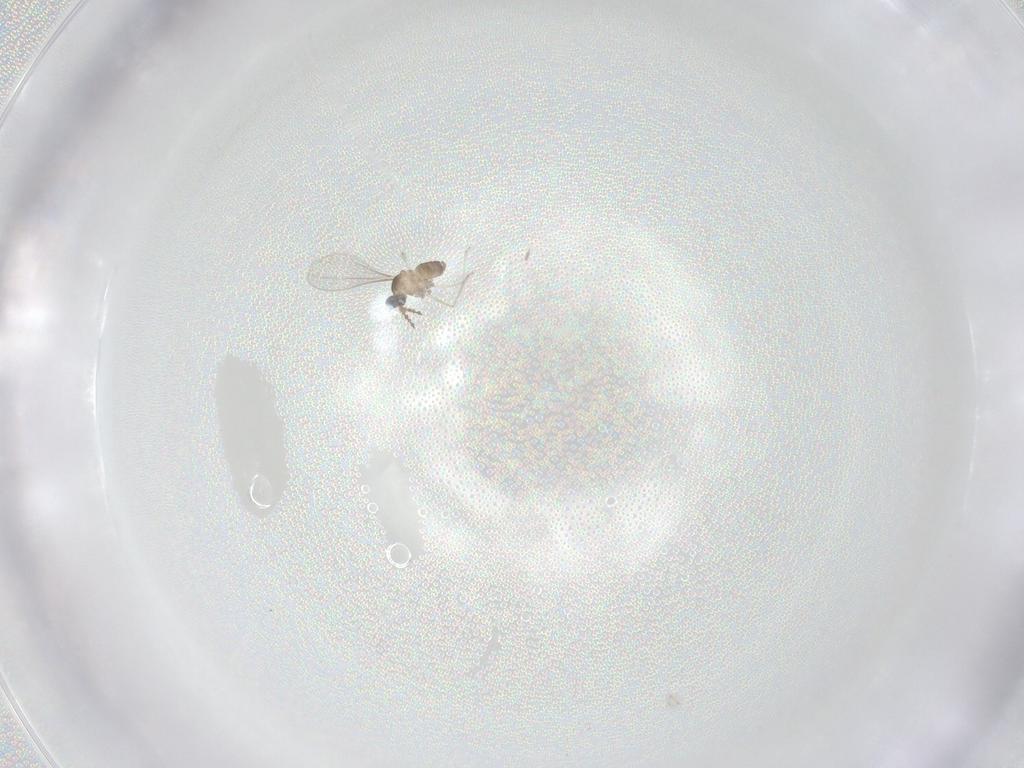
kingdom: Animalia
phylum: Arthropoda
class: Insecta
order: Diptera
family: Cecidomyiidae
